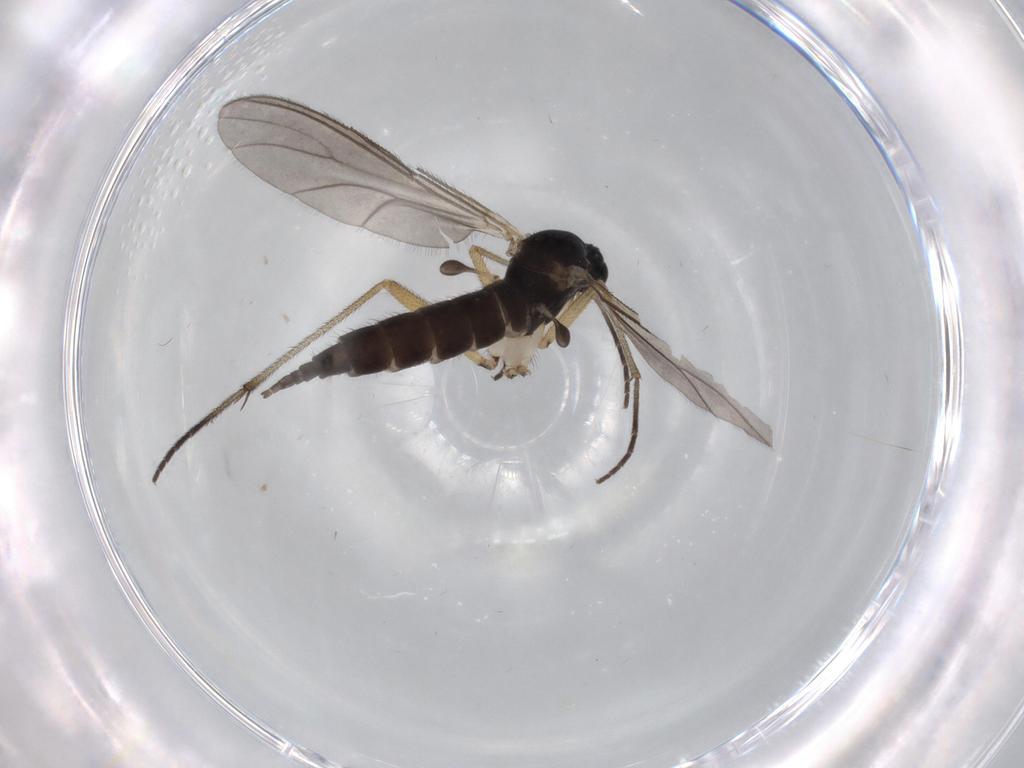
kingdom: Animalia
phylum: Arthropoda
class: Insecta
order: Diptera
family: Sciaridae
